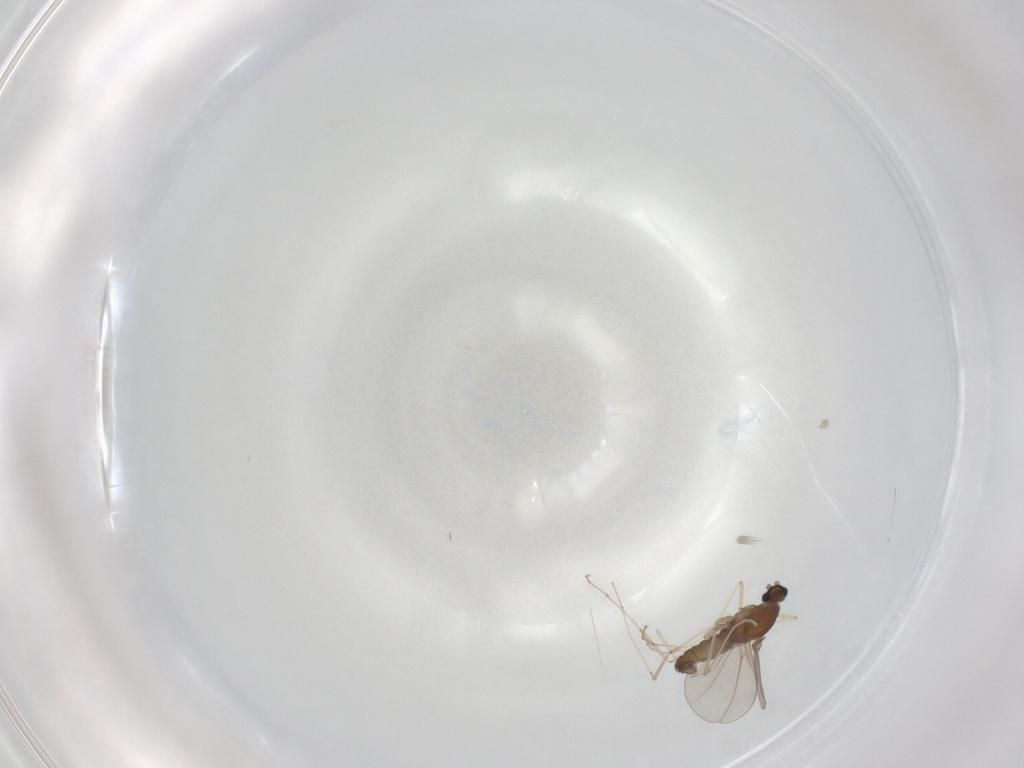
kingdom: Animalia
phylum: Arthropoda
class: Insecta
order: Diptera
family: Cecidomyiidae
